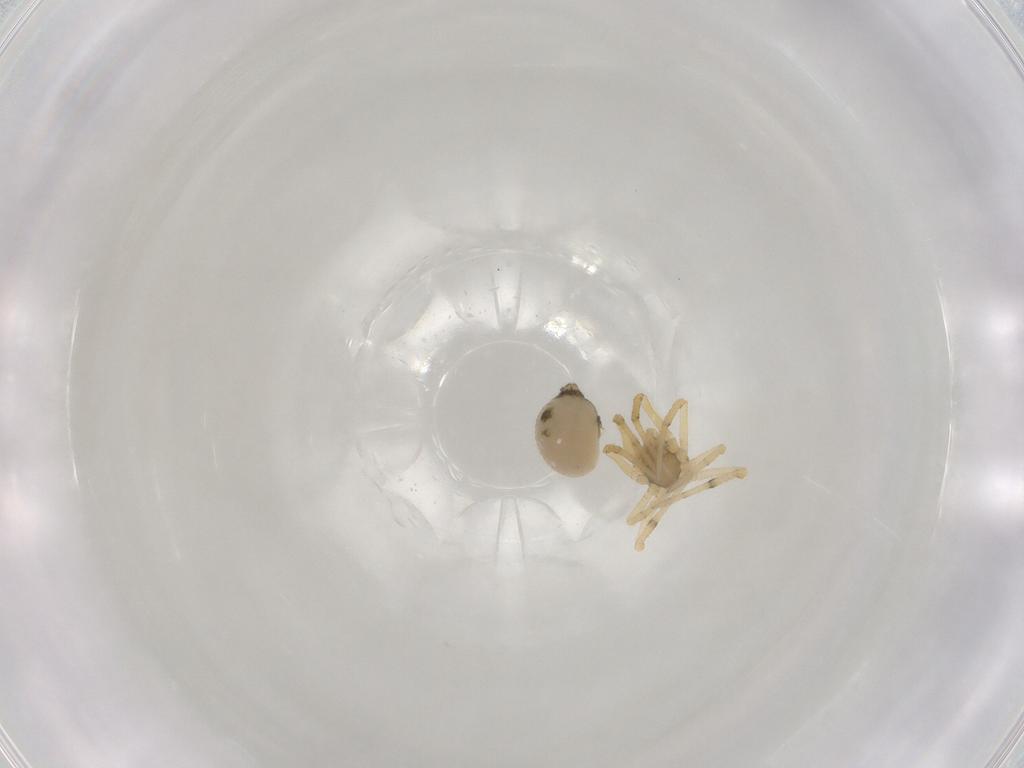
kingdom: Animalia
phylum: Arthropoda
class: Arachnida
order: Araneae
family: Theridiidae
